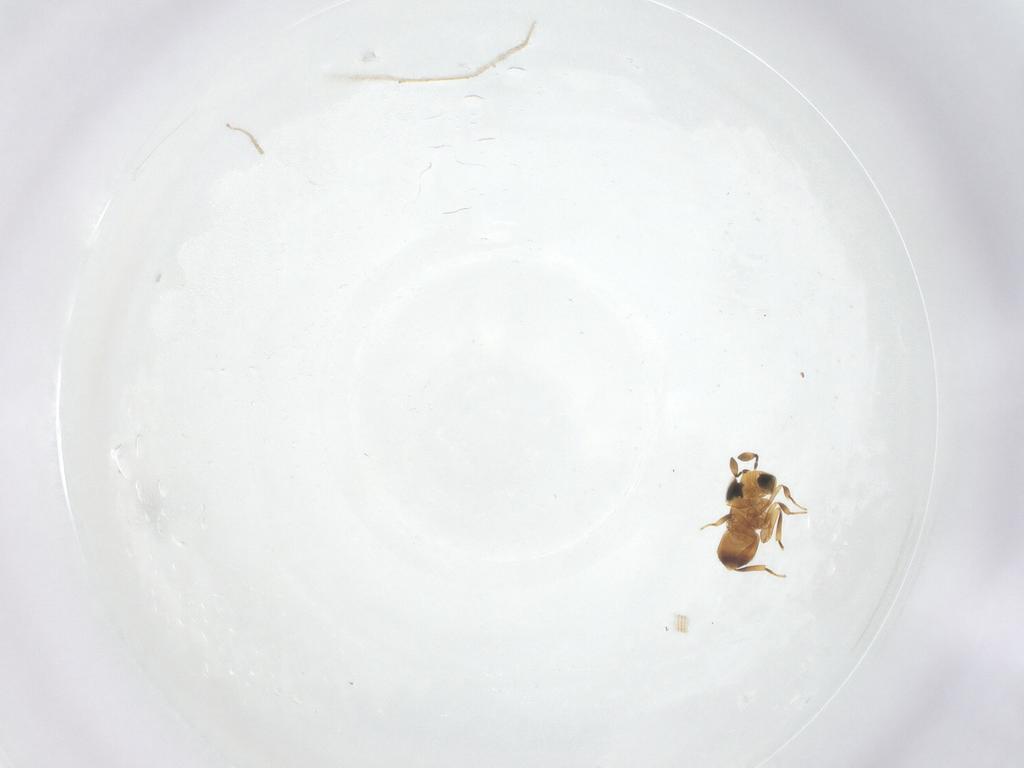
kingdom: Animalia
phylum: Arthropoda
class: Insecta
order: Hymenoptera
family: Scelionidae
